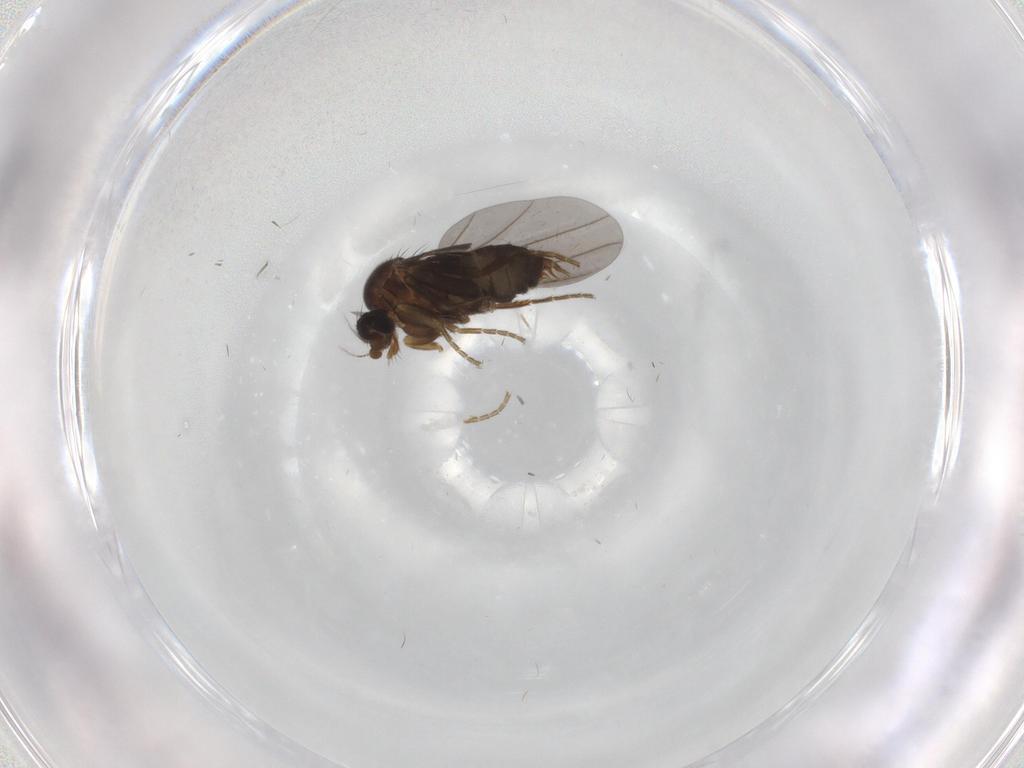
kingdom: Animalia
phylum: Arthropoda
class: Insecta
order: Diptera
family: Phoridae
